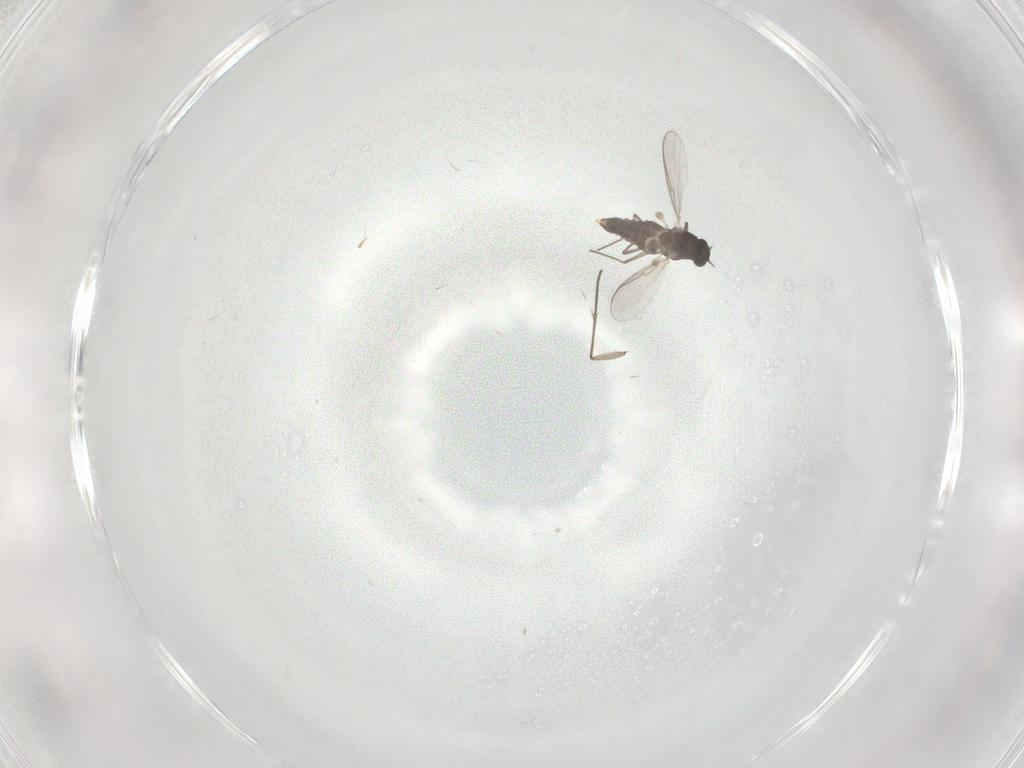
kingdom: Animalia
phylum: Arthropoda
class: Insecta
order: Diptera
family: Chironomidae
